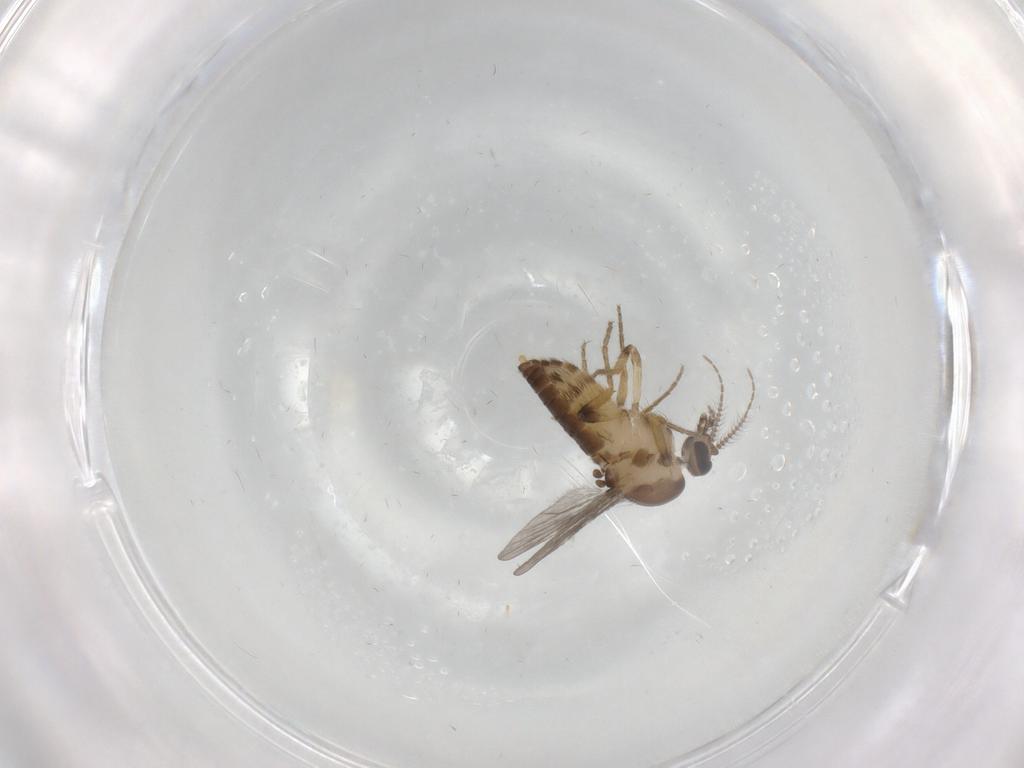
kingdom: Animalia
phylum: Arthropoda
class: Insecta
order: Diptera
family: Ceratopogonidae
